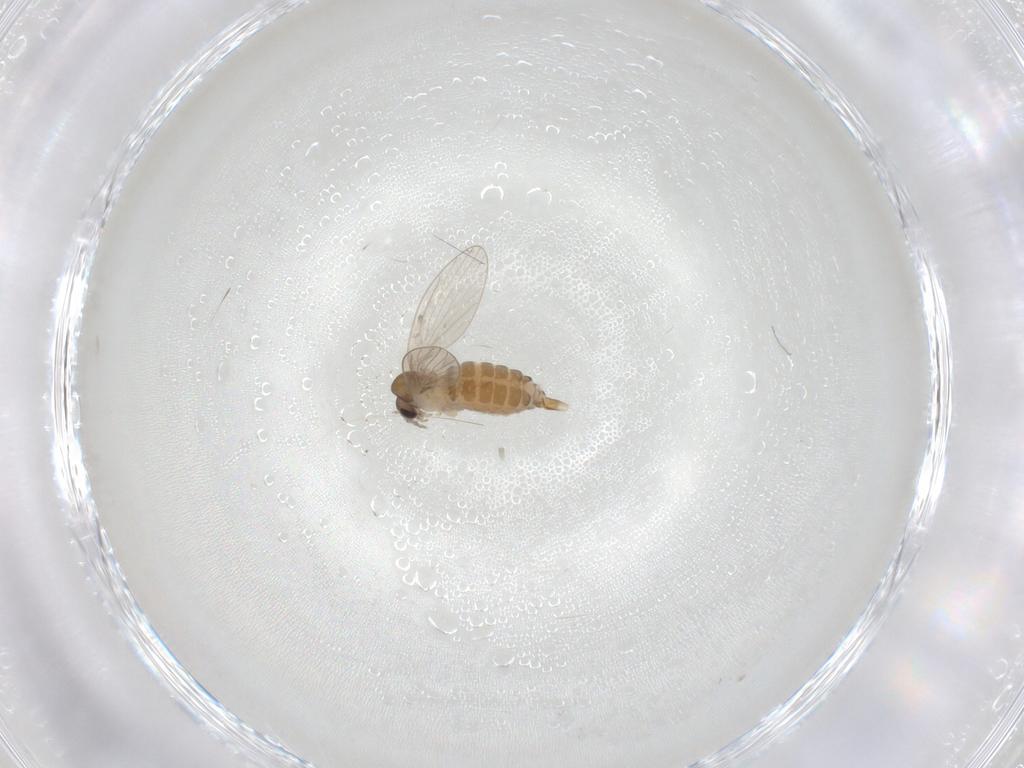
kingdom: Animalia
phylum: Arthropoda
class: Insecta
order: Diptera
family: Psychodidae
